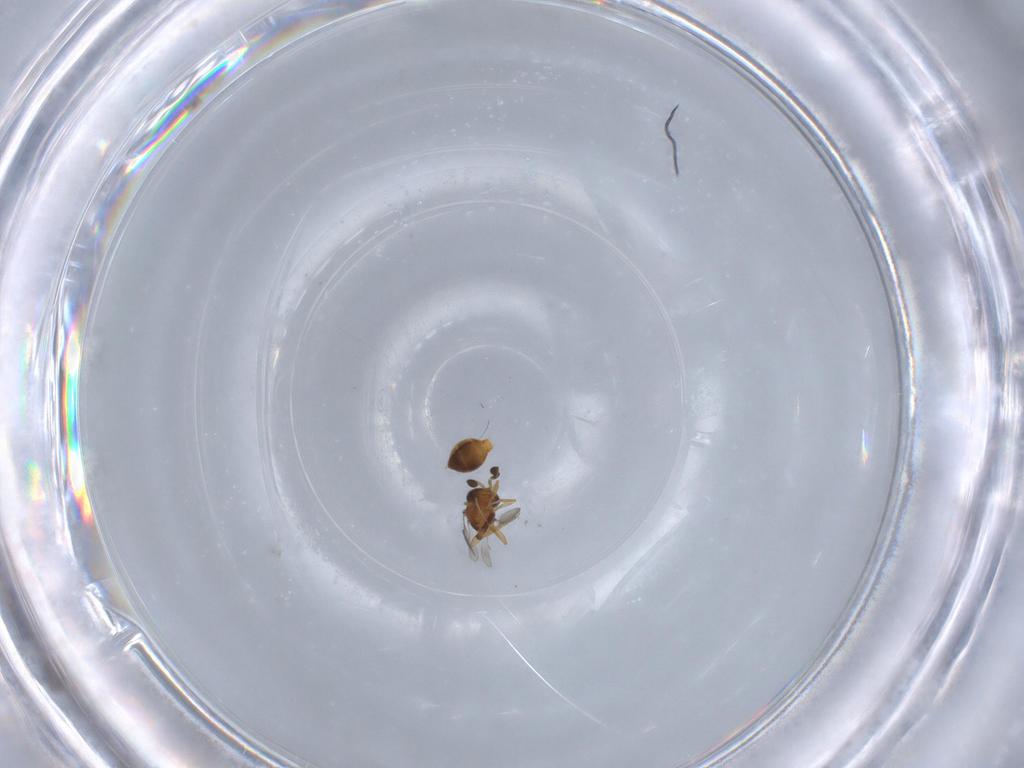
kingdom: Animalia
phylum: Arthropoda
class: Insecta
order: Hymenoptera
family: Scelionidae
